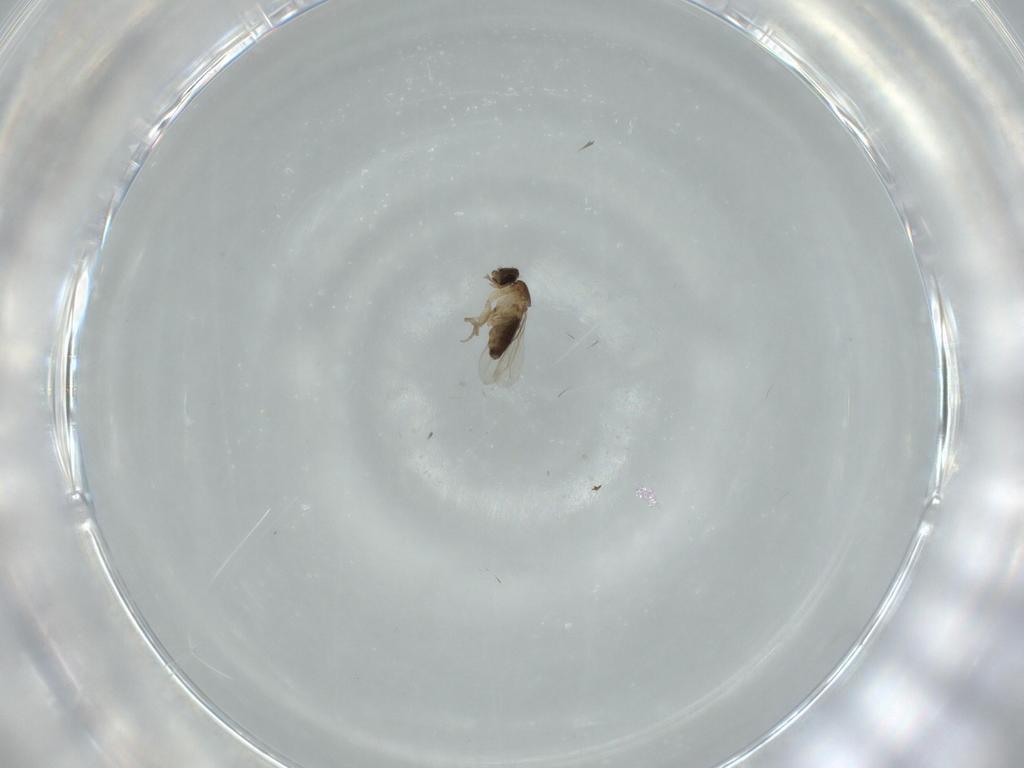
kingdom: Animalia
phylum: Arthropoda
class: Insecta
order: Diptera
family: Phoridae
